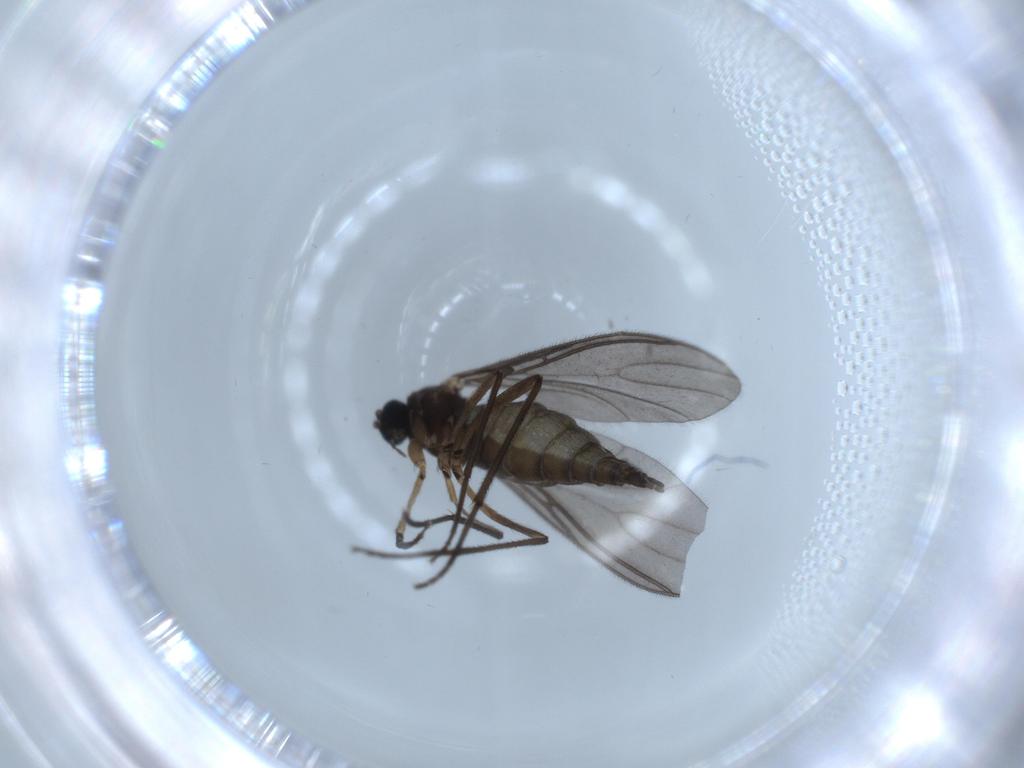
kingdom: Animalia
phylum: Arthropoda
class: Insecta
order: Diptera
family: Sciaridae
